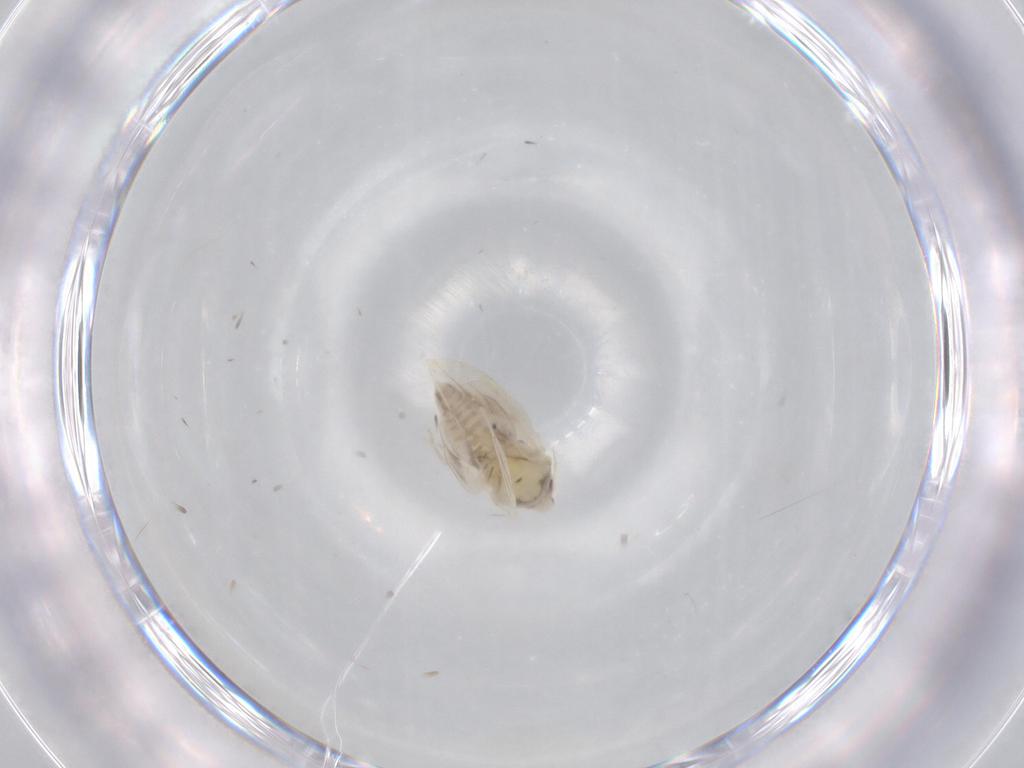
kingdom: Animalia
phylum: Arthropoda
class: Insecta
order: Hemiptera
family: Aleyrodidae
